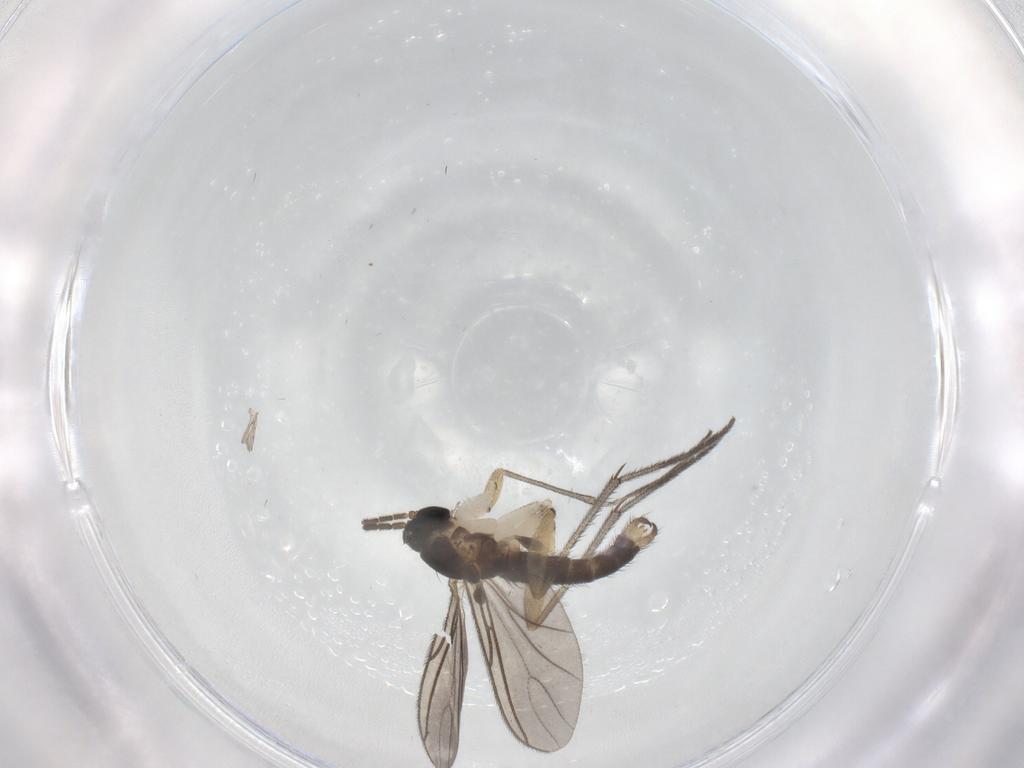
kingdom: Animalia
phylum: Arthropoda
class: Insecta
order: Diptera
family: Sciaridae
